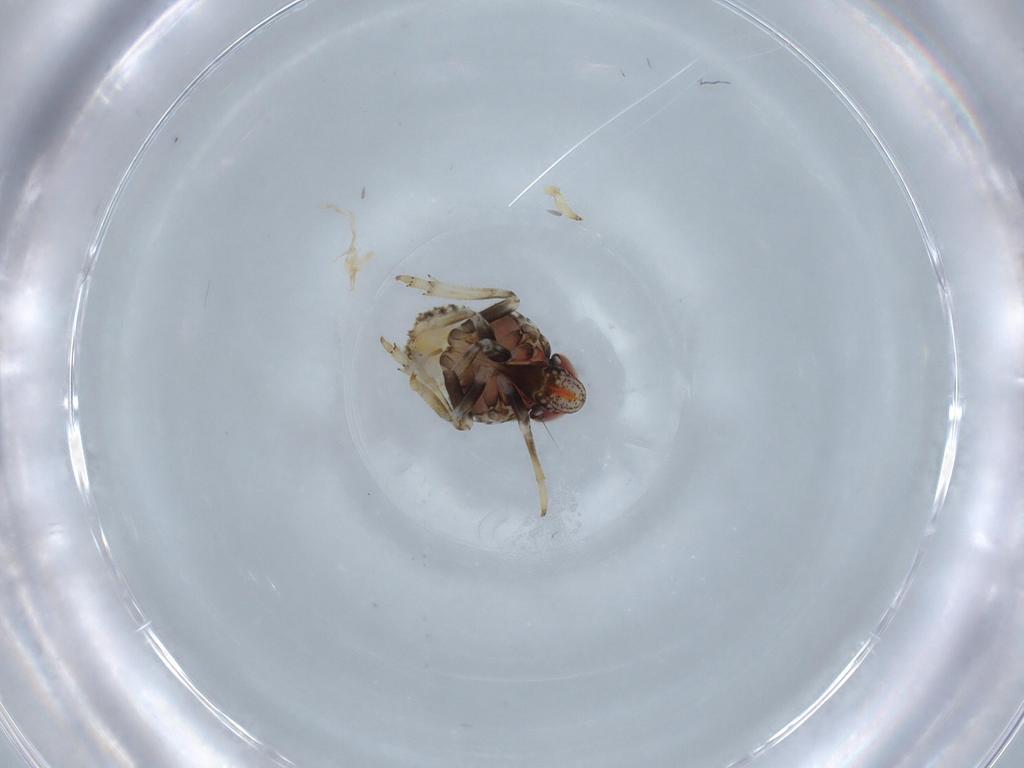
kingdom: Animalia
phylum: Arthropoda
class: Insecta
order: Hemiptera
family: Issidae
